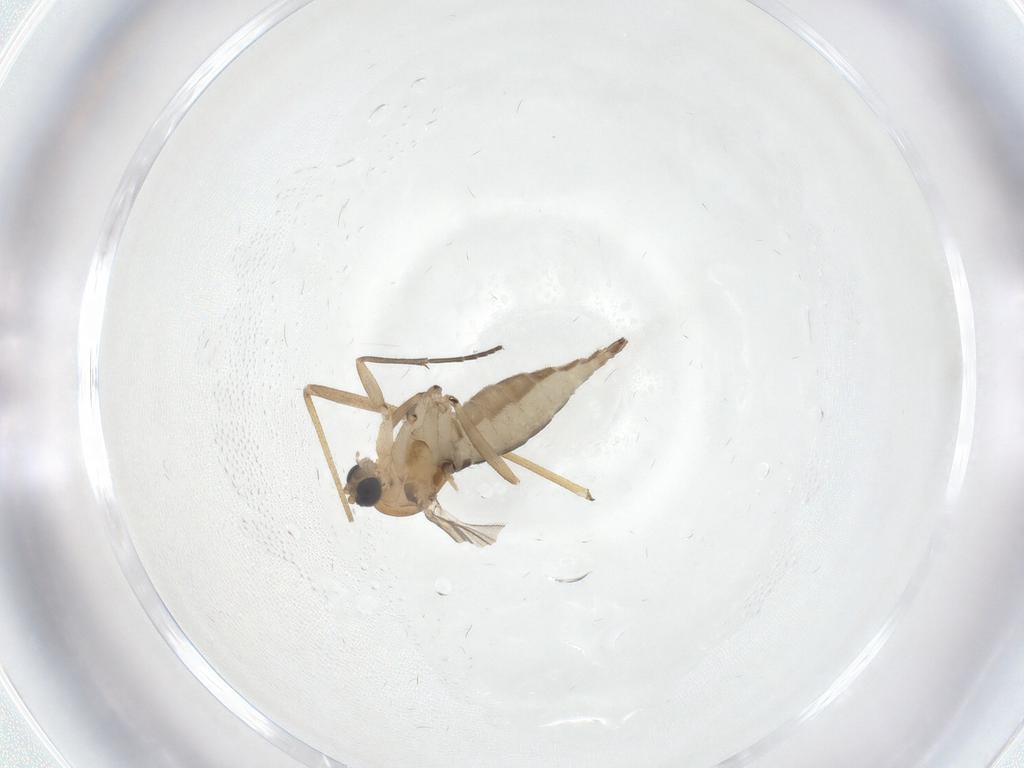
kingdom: Animalia
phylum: Arthropoda
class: Insecta
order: Diptera
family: Sciaridae
